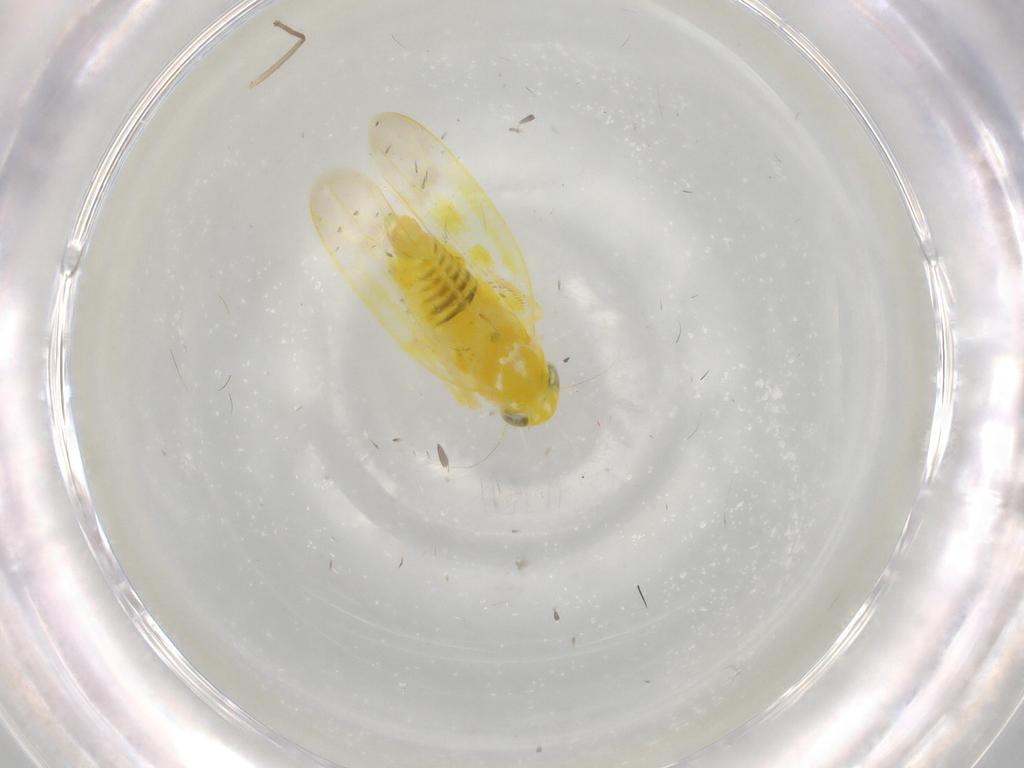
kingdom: Animalia
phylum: Arthropoda
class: Insecta
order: Hemiptera
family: Cicadellidae
